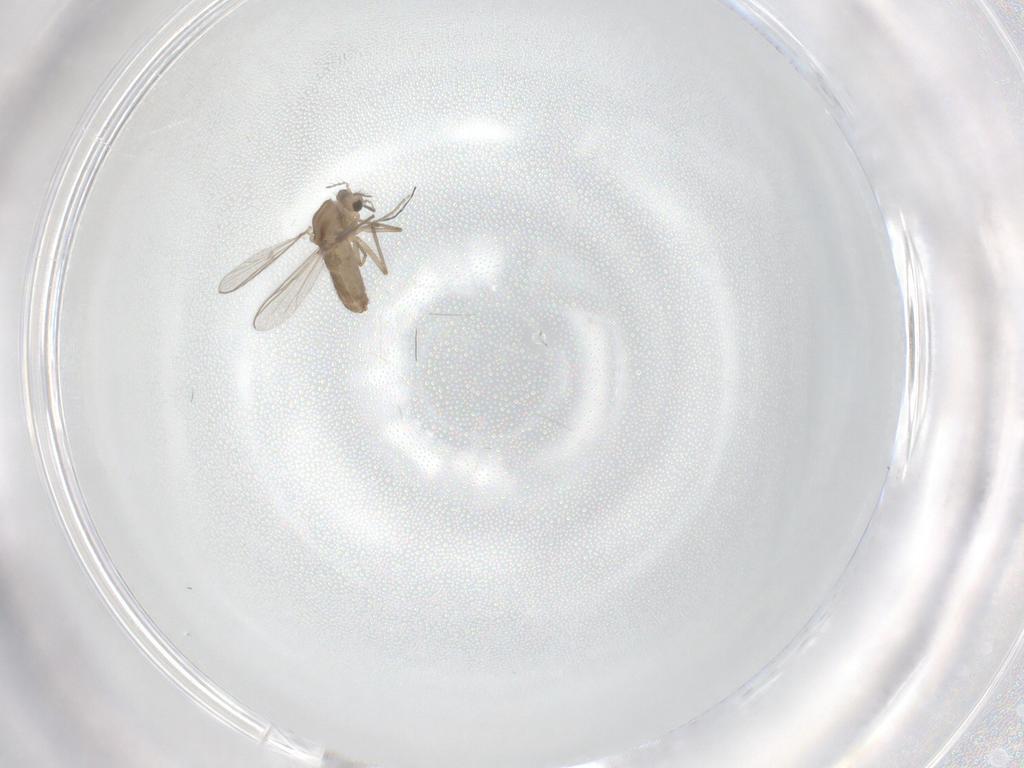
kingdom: Animalia
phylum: Arthropoda
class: Insecta
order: Diptera
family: Chironomidae
